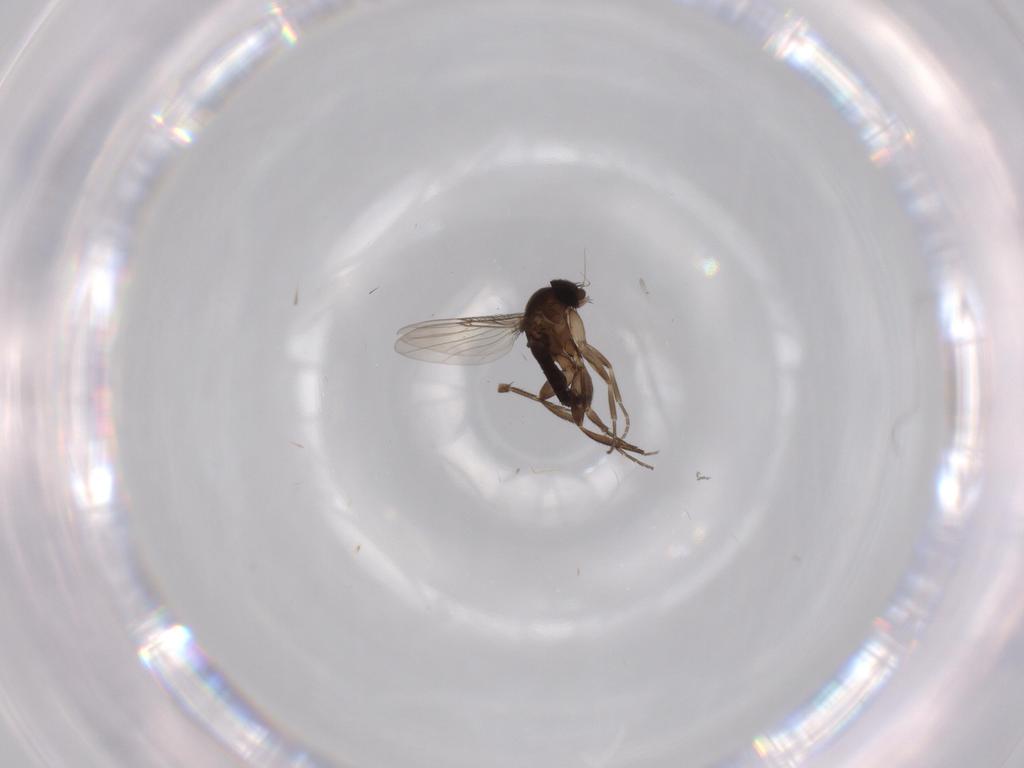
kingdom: Animalia
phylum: Arthropoda
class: Insecta
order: Diptera
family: Phoridae
